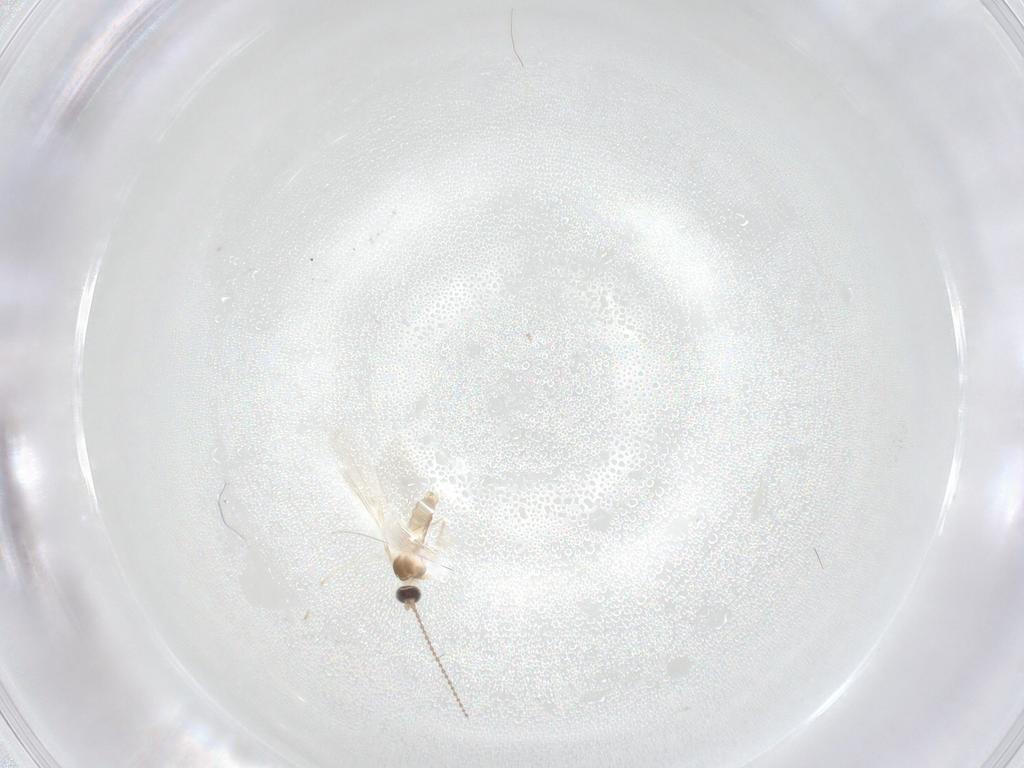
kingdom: Animalia
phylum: Arthropoda
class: Insecta
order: Diptera
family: Cecidomyiidae
